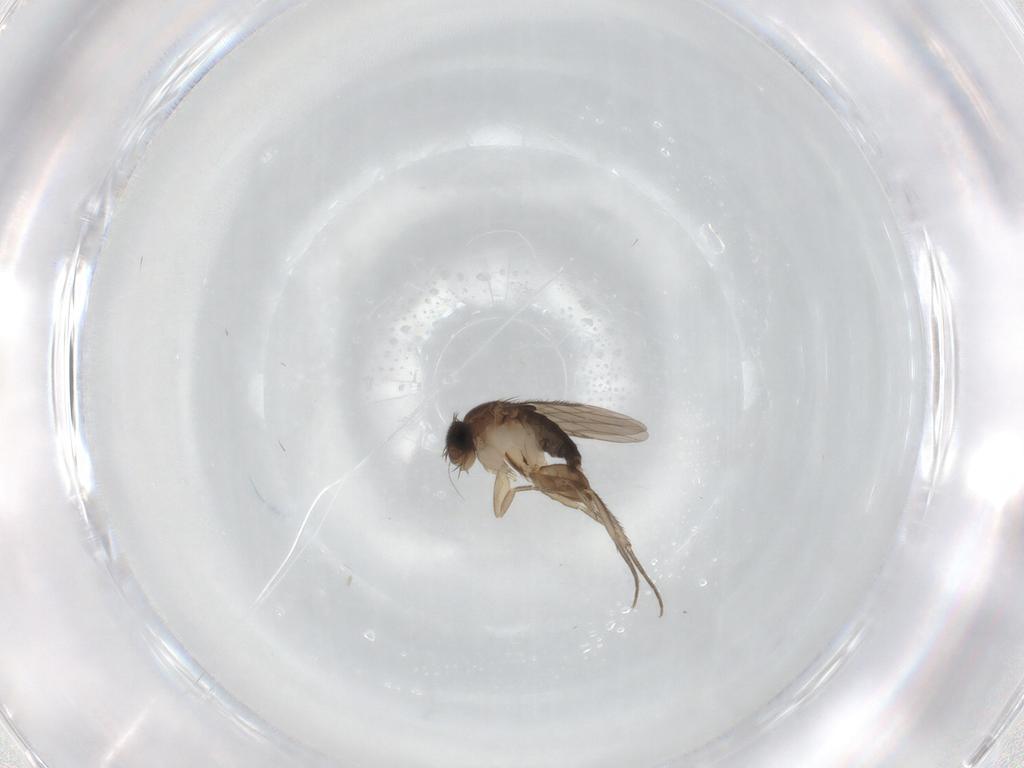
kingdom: Animalia
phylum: Arthropoda
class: Insecta
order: Diptera
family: Phoridae
